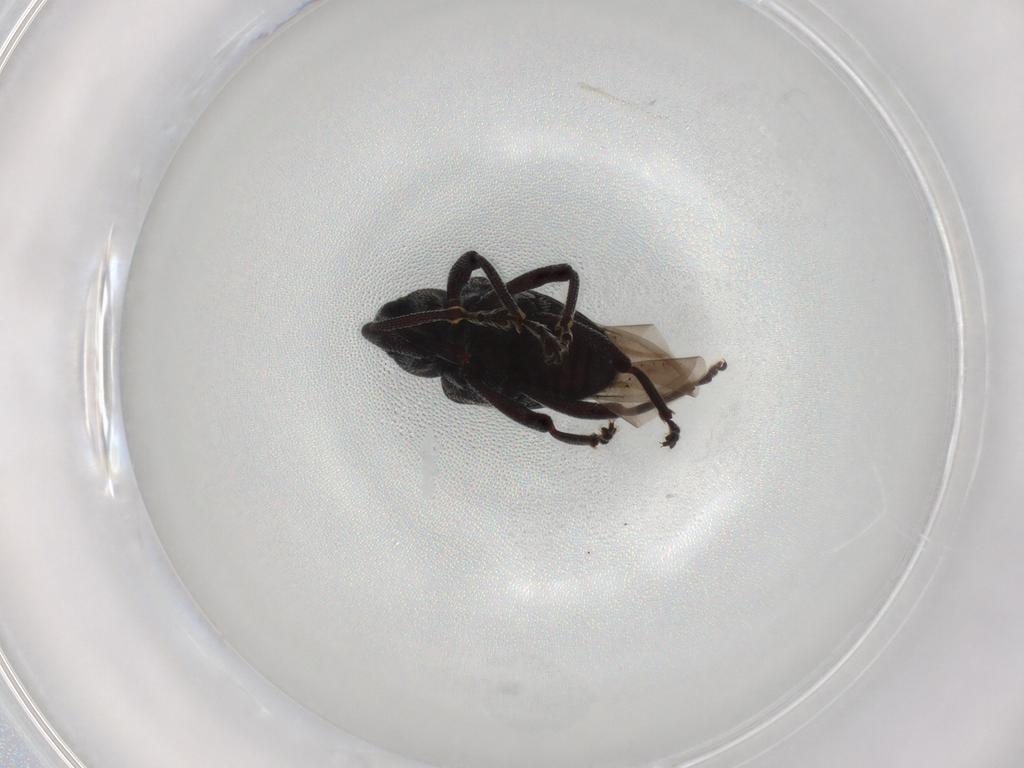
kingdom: Animalia
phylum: Arthropoda
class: Insecta
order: Coleoptera
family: Curculionidae
